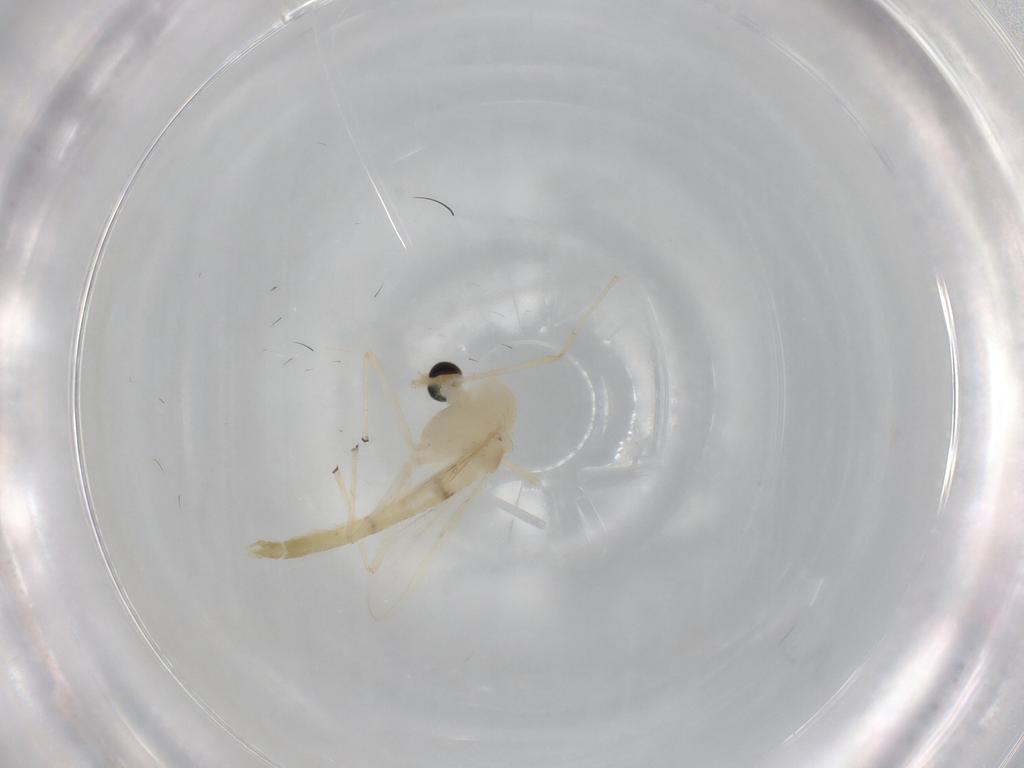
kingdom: Animalia
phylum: Arthropoda
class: Insecta
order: Diptera
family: Chironomidae
